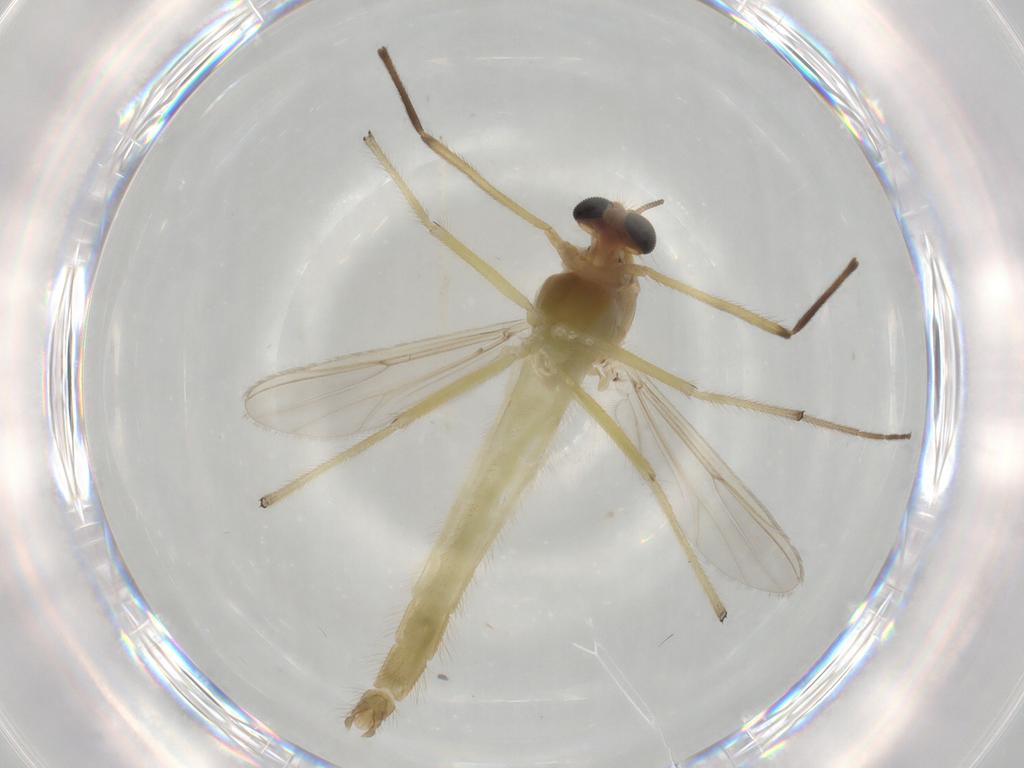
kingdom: Animalia
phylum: Arthropoda
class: Insecta
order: Diptera
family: Chironomidae
